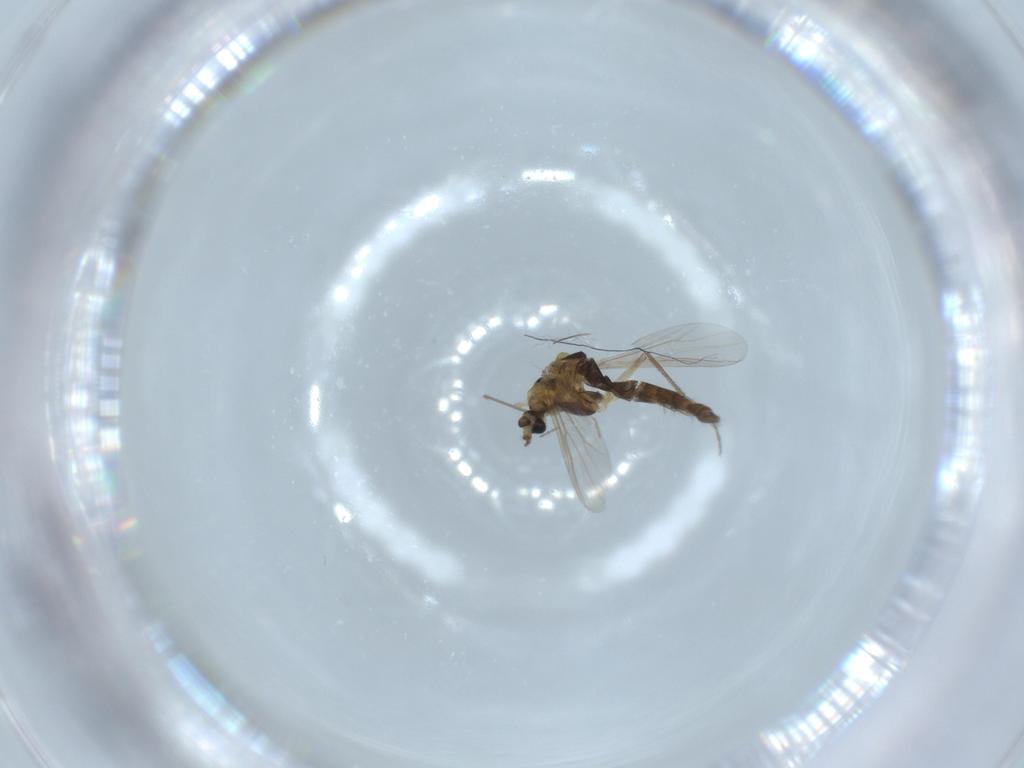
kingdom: Animalia
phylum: Arthropoda
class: Insecta
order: Diptera
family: Chironomidae
